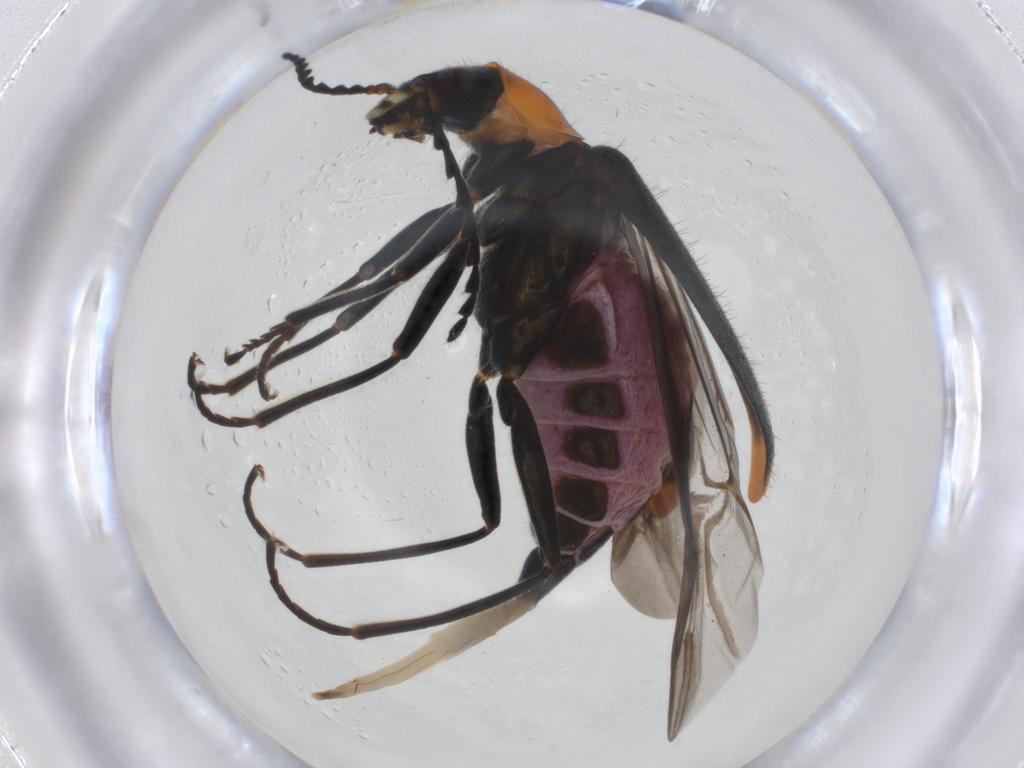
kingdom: Animalia
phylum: Arthropoda
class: Insecta
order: Coleoptera
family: Melyridae
